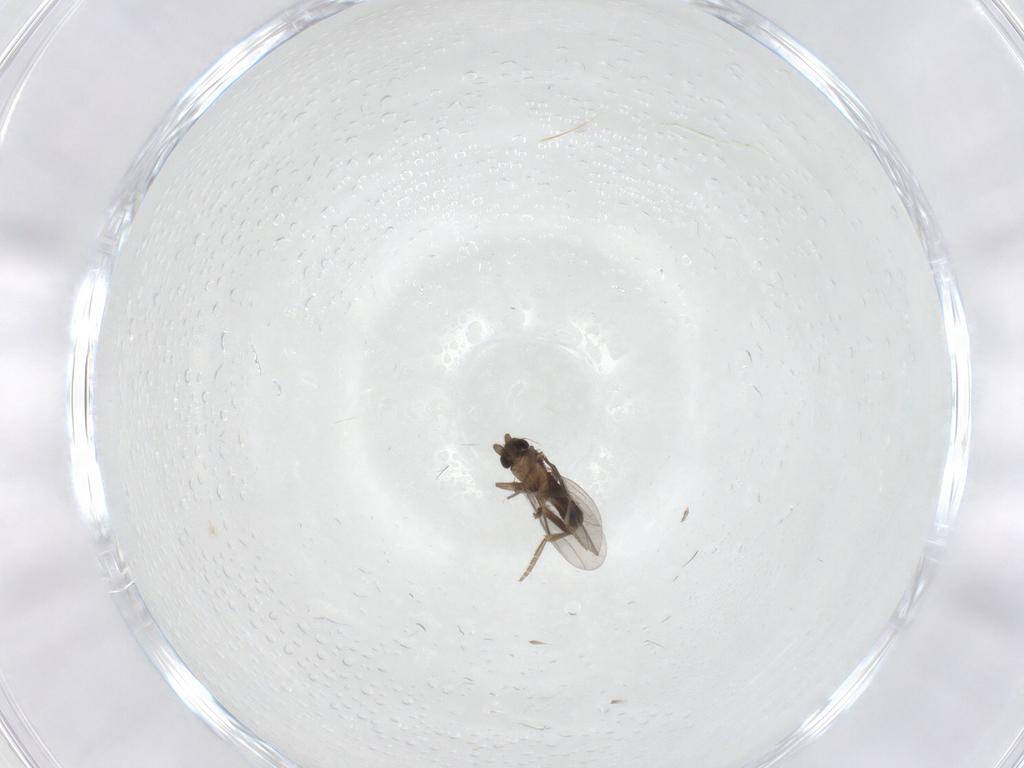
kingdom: Animalia
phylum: Arthropoda
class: Insecta
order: Diptera
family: Chironomidae
